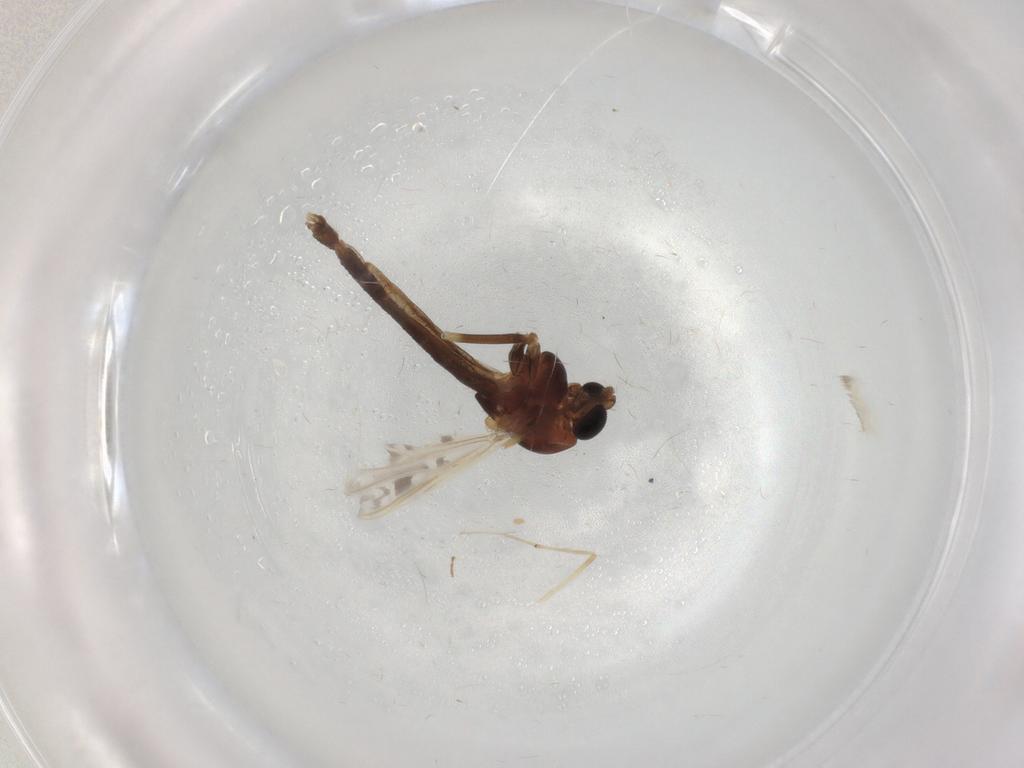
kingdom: Animalia
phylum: Arthropoda
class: Insecta
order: Diptera
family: Chironomidae
